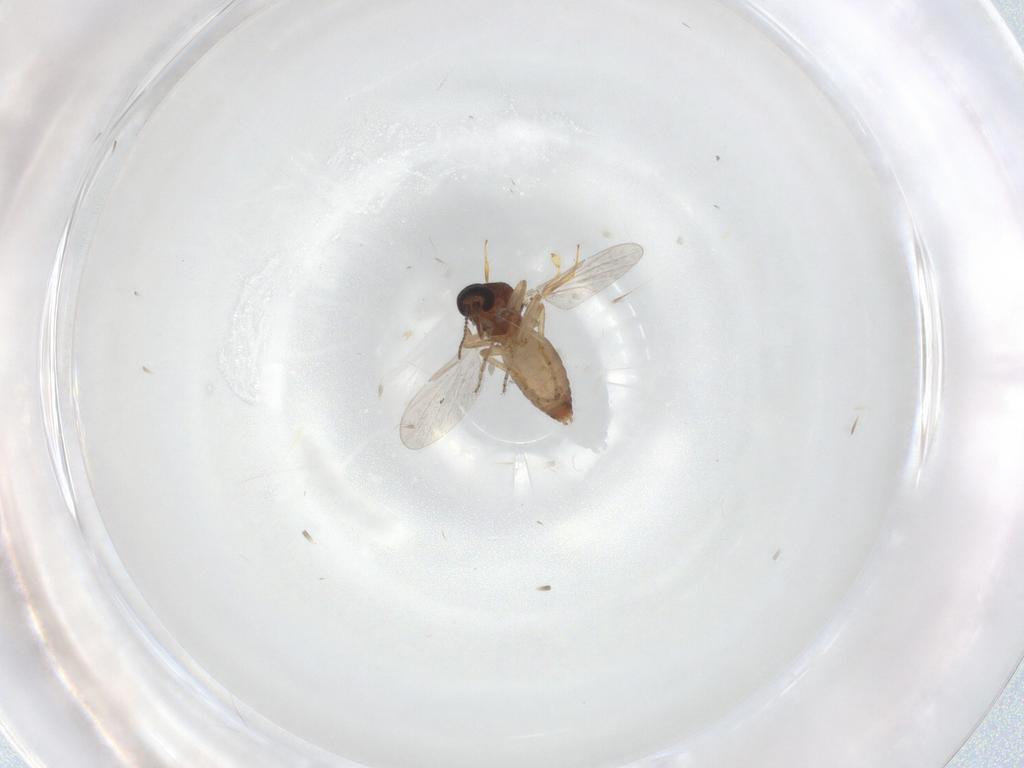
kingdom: Animalia
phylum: Arthropoda
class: Insecta
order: Diptera
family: Ceratopogonidae
